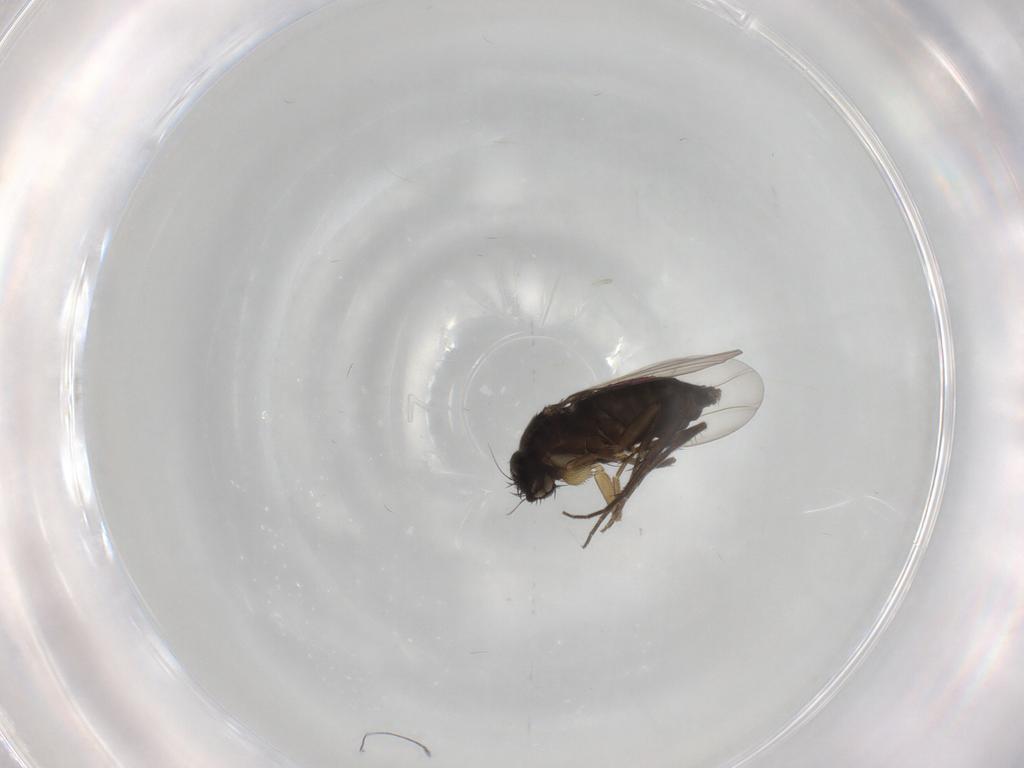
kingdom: Animalia
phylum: Arthropoda
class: Insecta
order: Diptera
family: Phoridae
